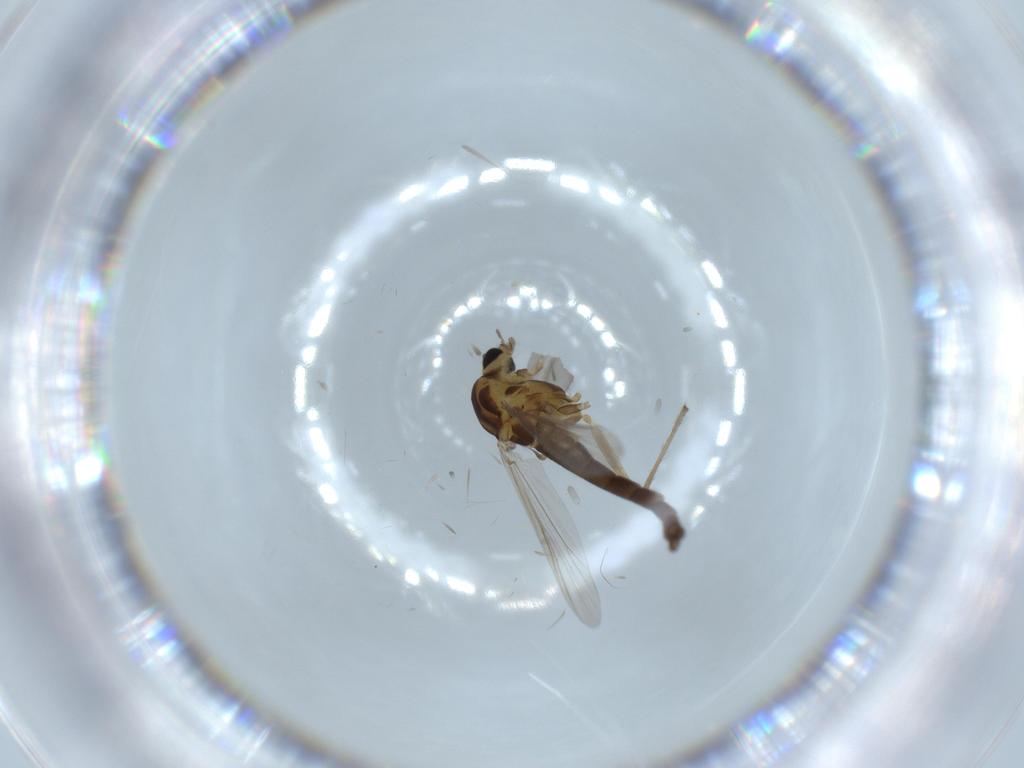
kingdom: Animalia
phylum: Arthropoda
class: Insecta
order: Diptera
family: Chironomidae
